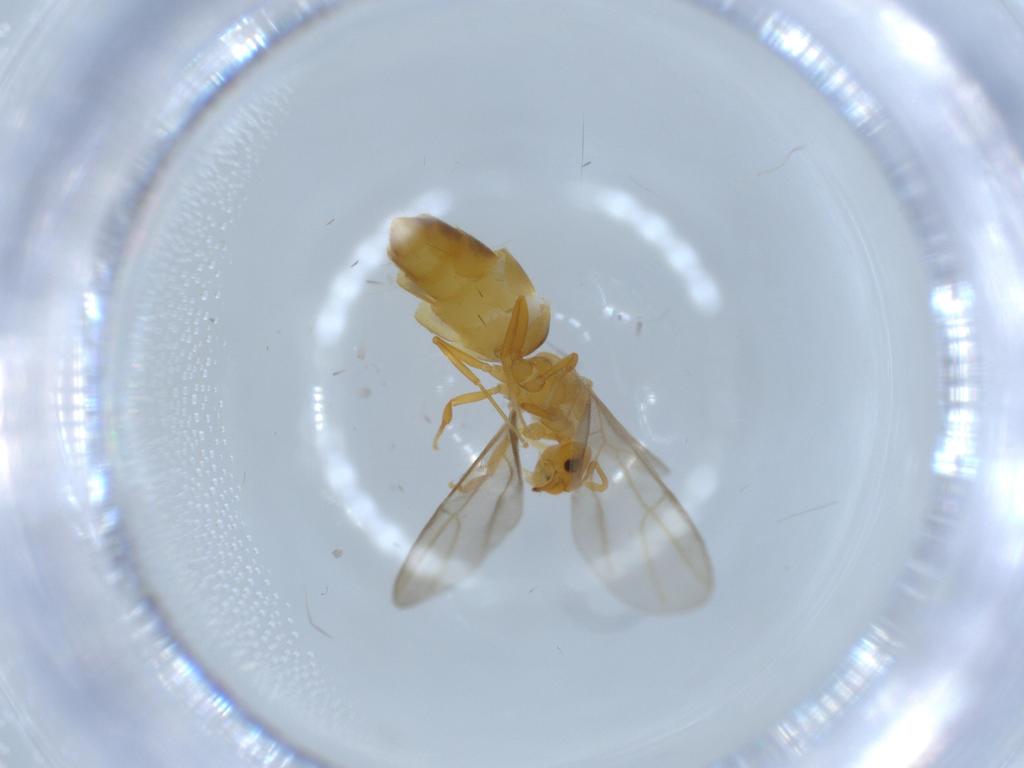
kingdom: Animalia
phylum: Arthropoda
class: Insecta
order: Hymenoptera
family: Formicidae
